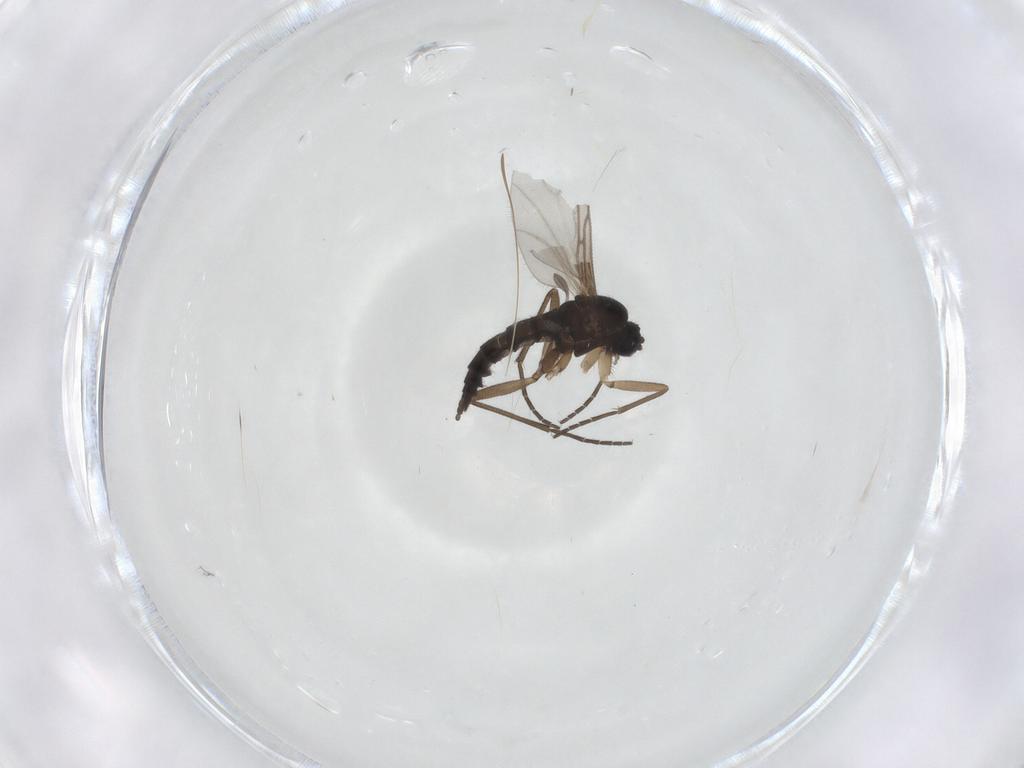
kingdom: Animalia
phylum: Arthropoda
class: Insecta
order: Diptera
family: Sciaridae
